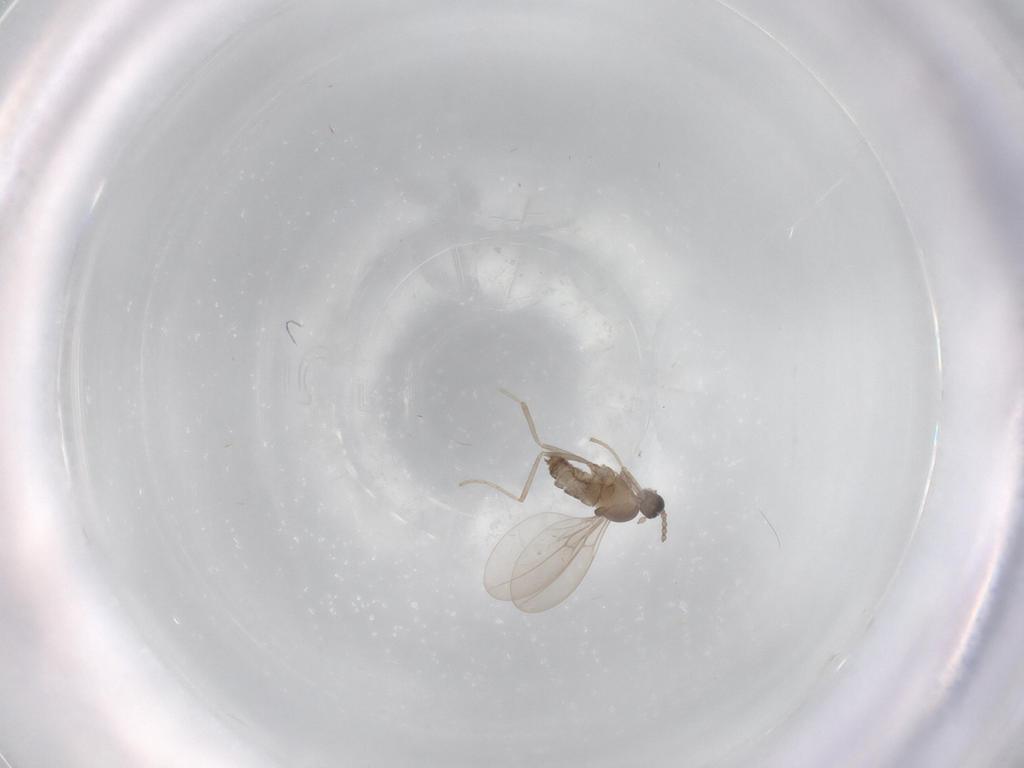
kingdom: Animalia
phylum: Arthropoda
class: Insecta
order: Diptera
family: Cecidomyiidae
